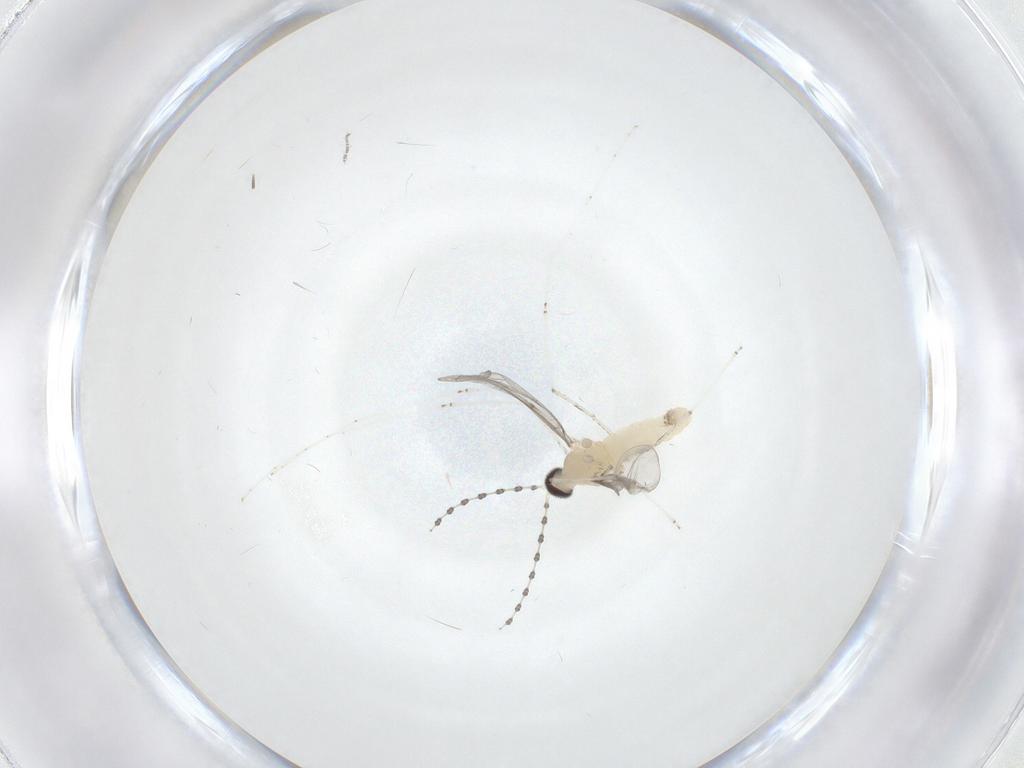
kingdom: Animalia
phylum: Arthropoda
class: Insecta
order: Diptera
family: Cecidomyiidae
